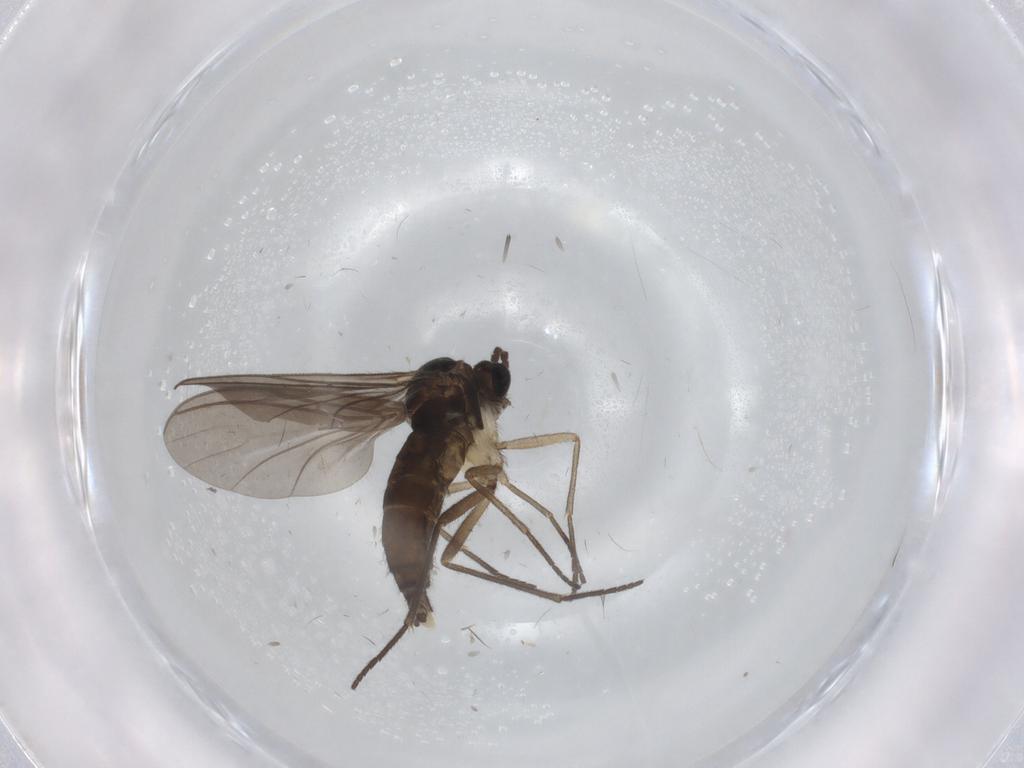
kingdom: Animalia
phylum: Arthropoda
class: Insecta
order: Diptera
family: Sciaridae
